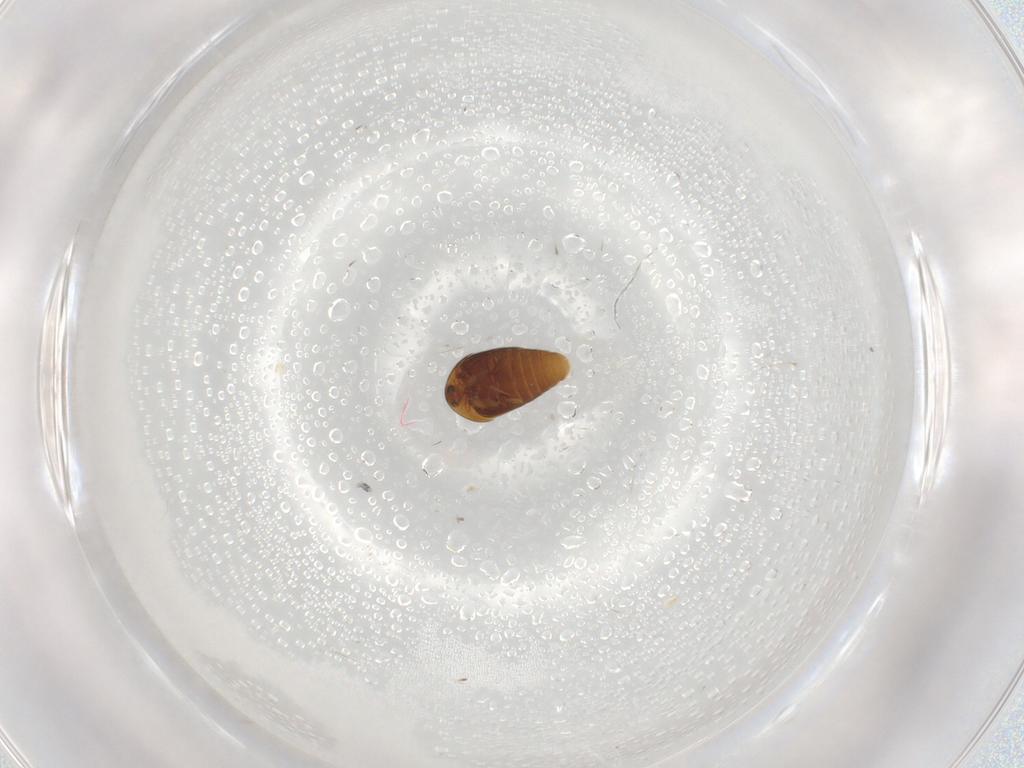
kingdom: Animalia
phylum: Arthropoda
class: Insecta
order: Coleoptera
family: Corylophidae
